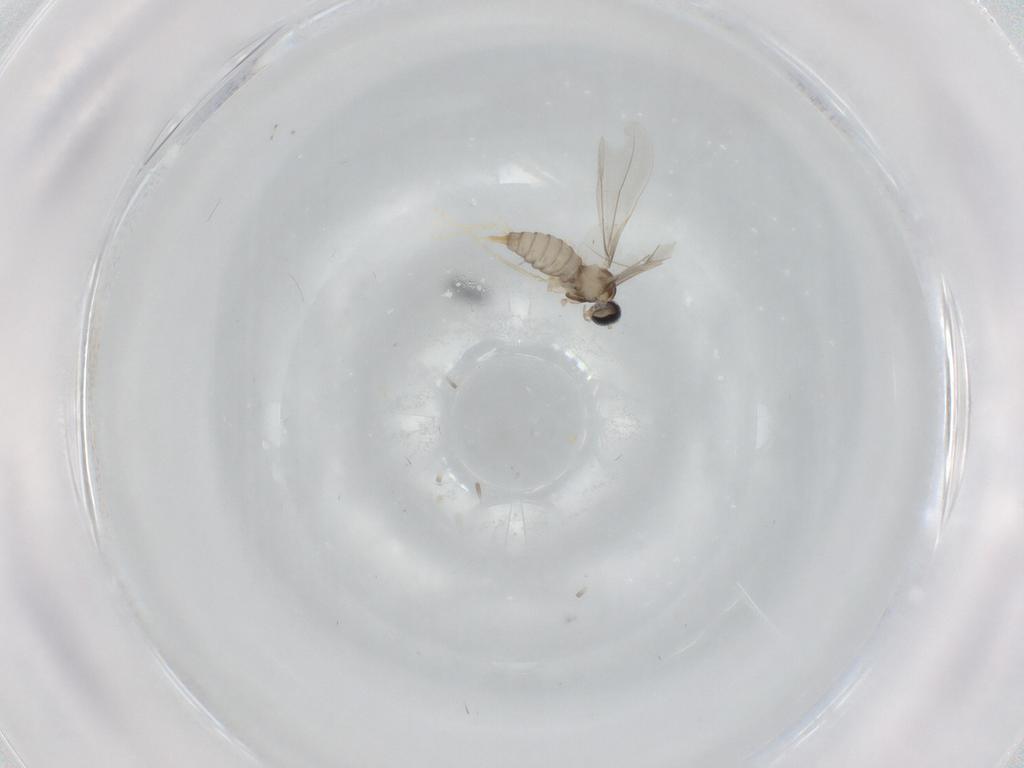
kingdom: Animalia
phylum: Arthropoda
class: Insecta
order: Diptera
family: Cecidomyiidae
